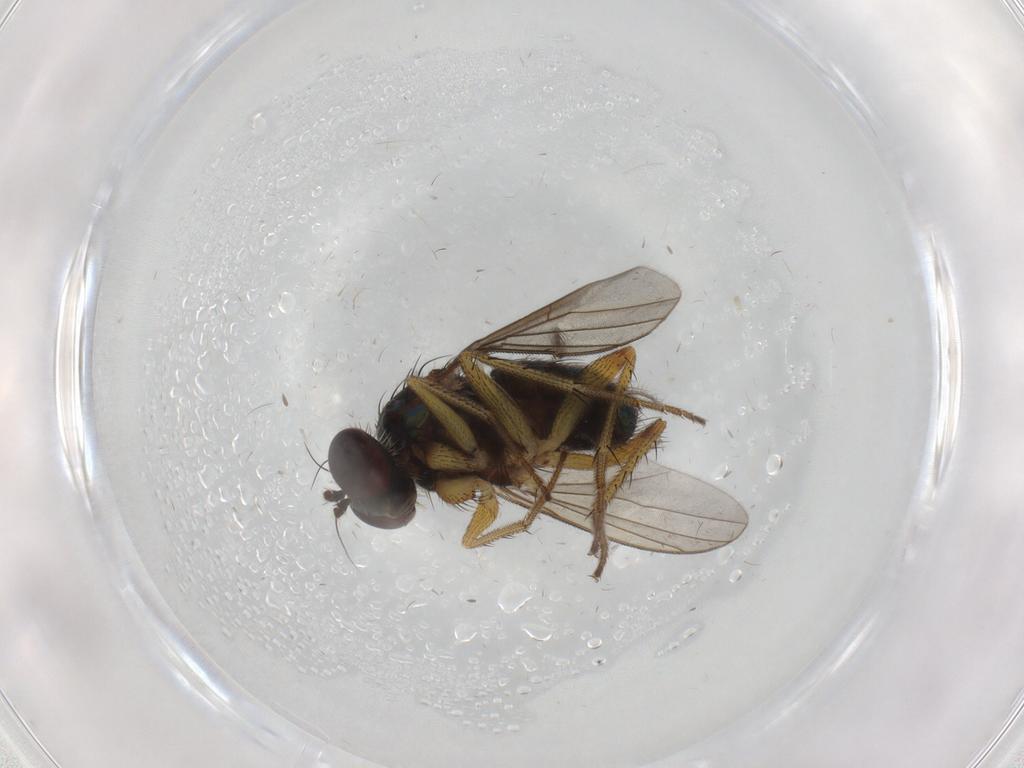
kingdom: Animalia
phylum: Arthropoda
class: Insecta
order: Diptera
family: Dolichopodidae
